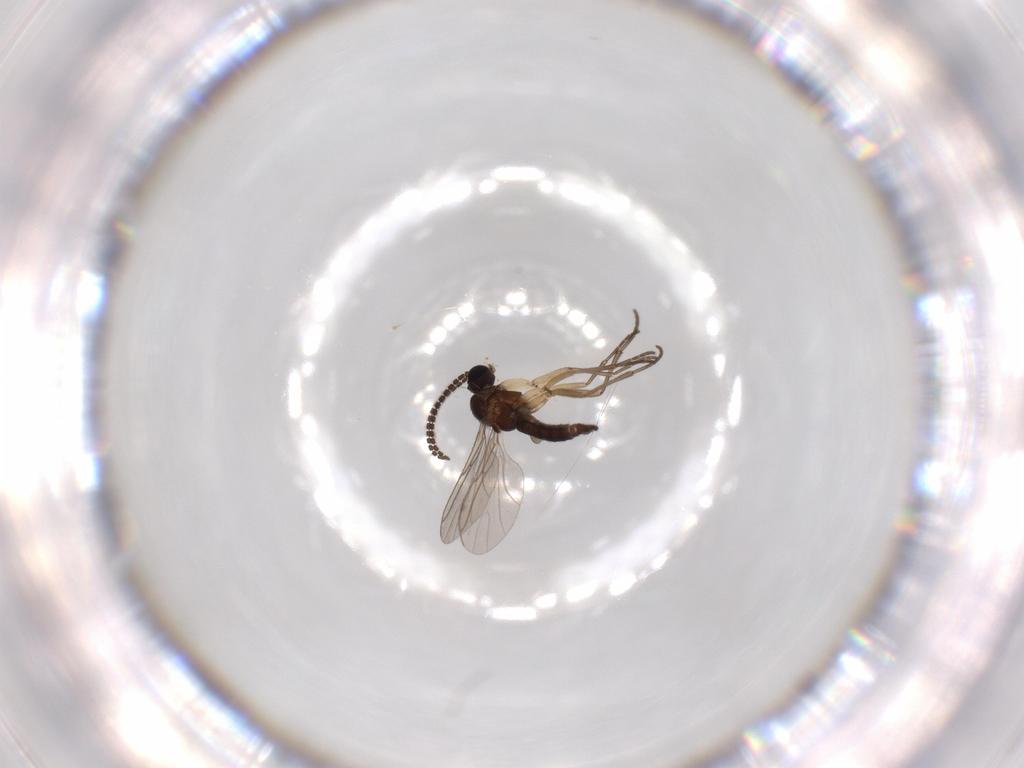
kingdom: Animalia
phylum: Arthropoda
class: Insecta
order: Diptera
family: Sciaridae
